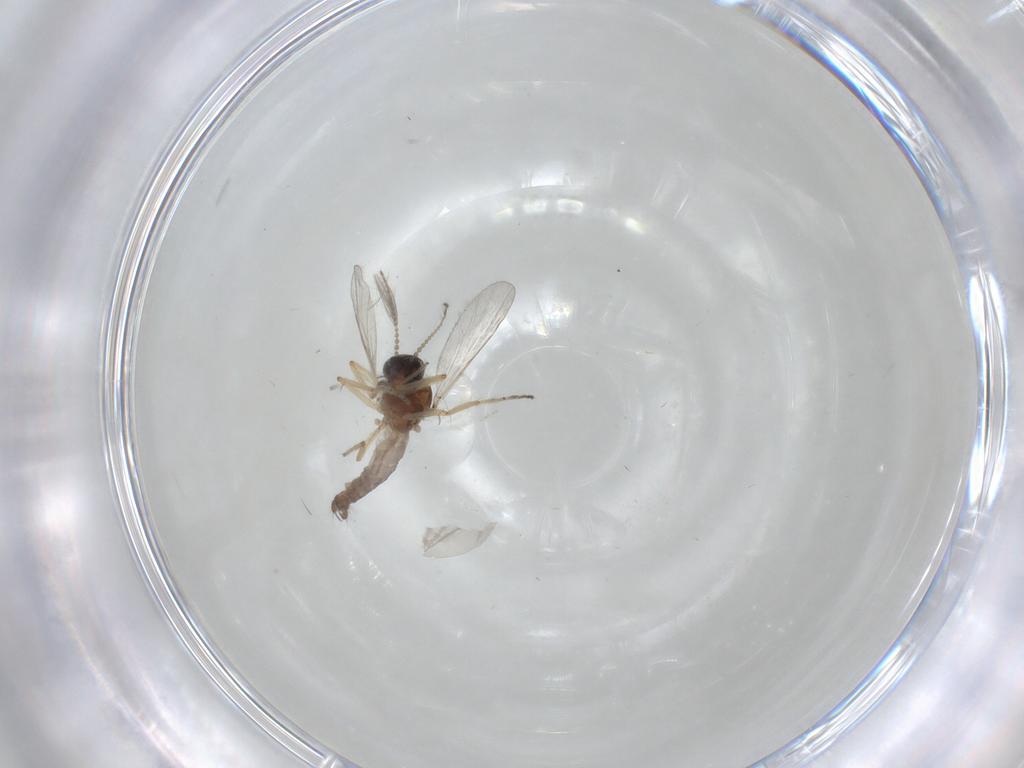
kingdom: Animalia
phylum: Arthropoda
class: Insecta
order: Diptera
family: Ceratopogonidae
